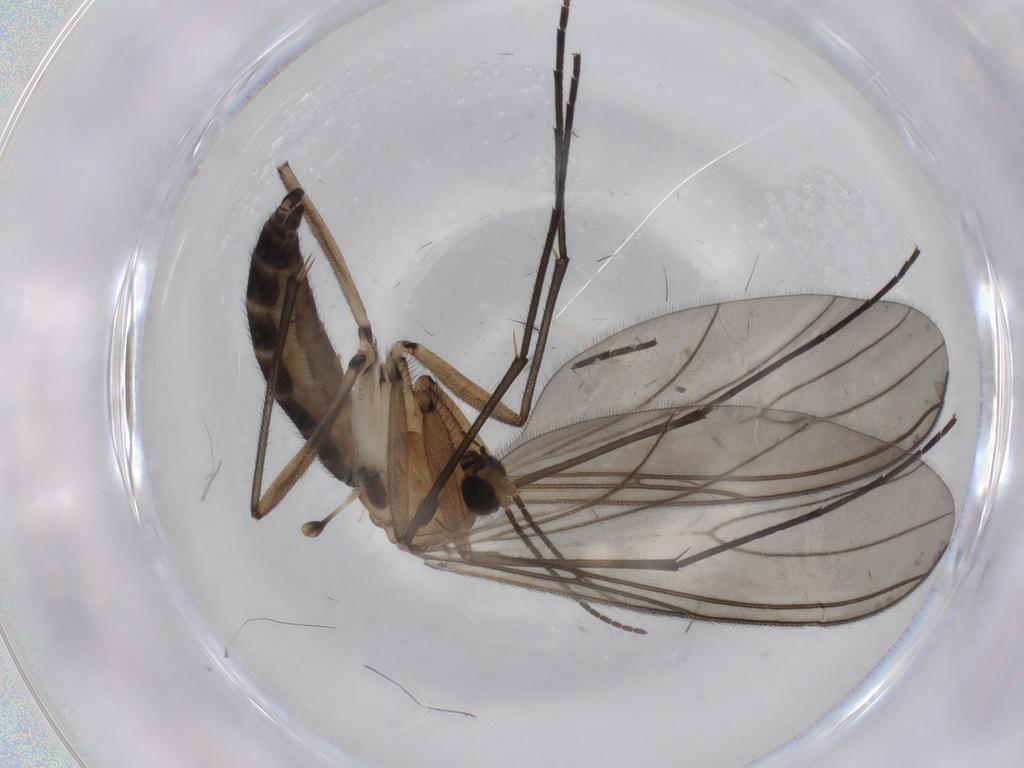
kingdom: Animalia
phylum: Arthropoda
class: Insecta
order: Diptera
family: Sciaridae
